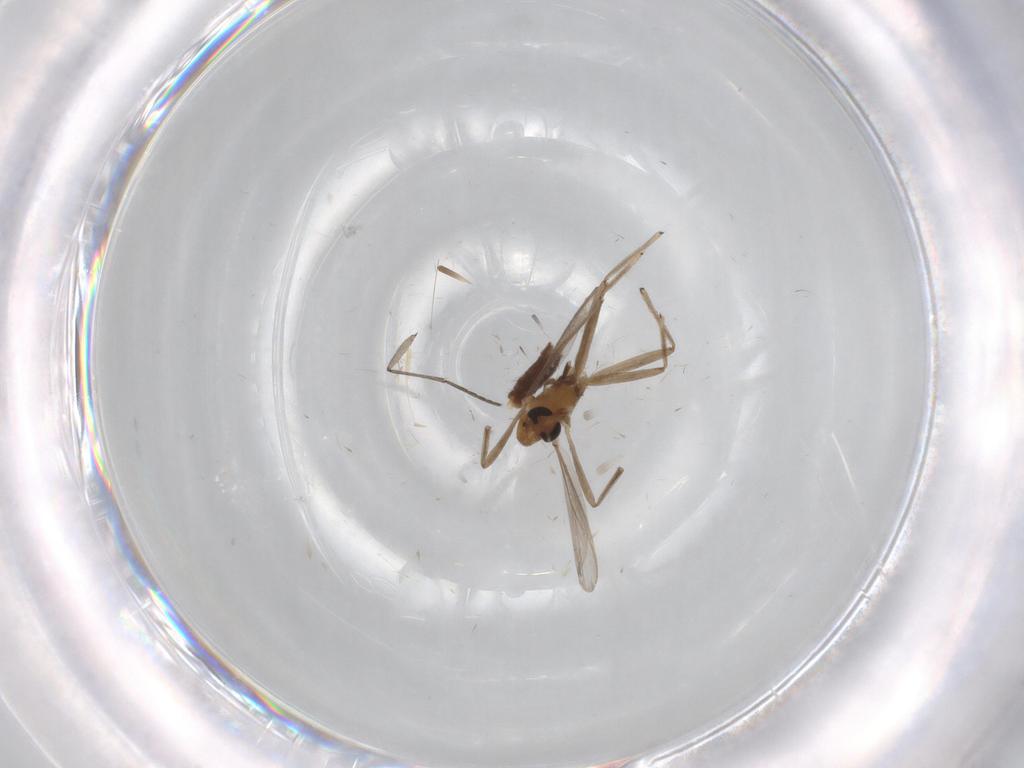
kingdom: Animalia
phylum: Arthropoda
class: Insecta
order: Diptera
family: Chironomidae
